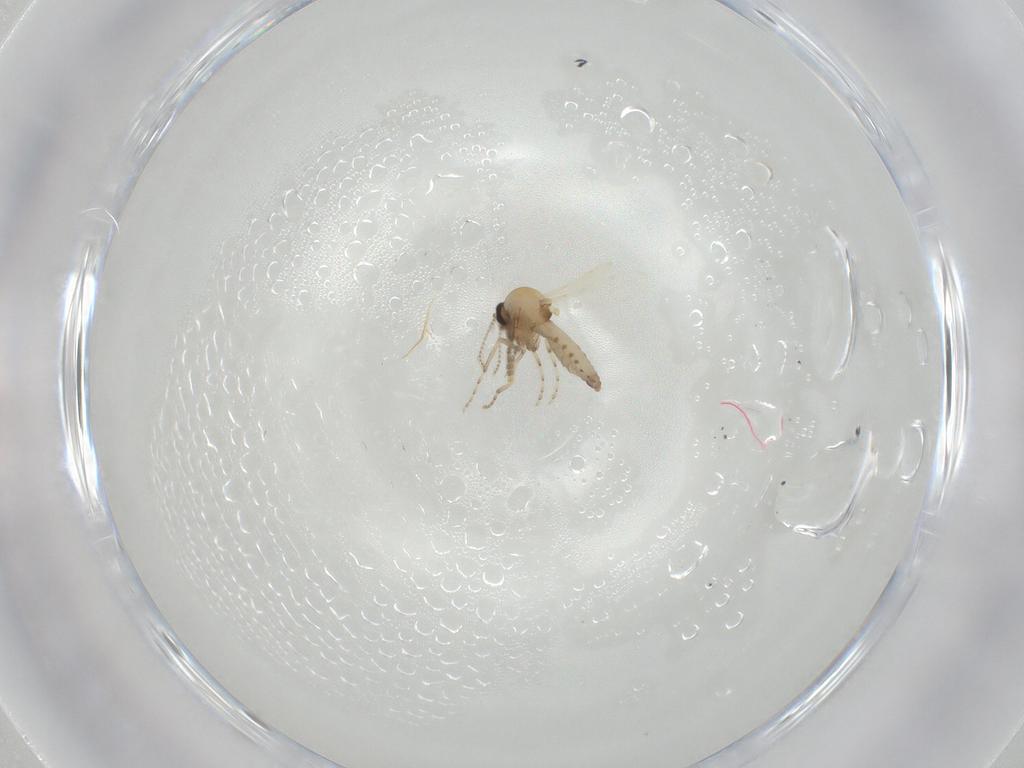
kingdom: Animalia
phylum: Arthropoda
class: Insecta
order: Diptera
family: Ceratopogonidae
